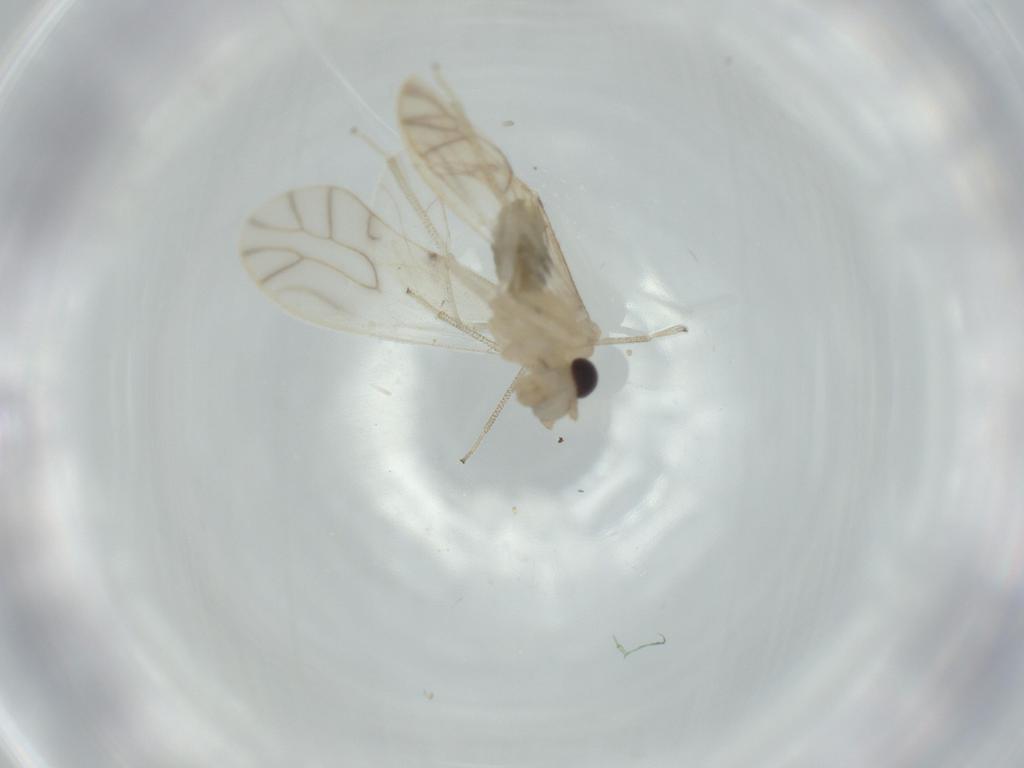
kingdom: Animalia
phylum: Arthropoda
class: Insecta
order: Psocodea
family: Caeciliusidae
